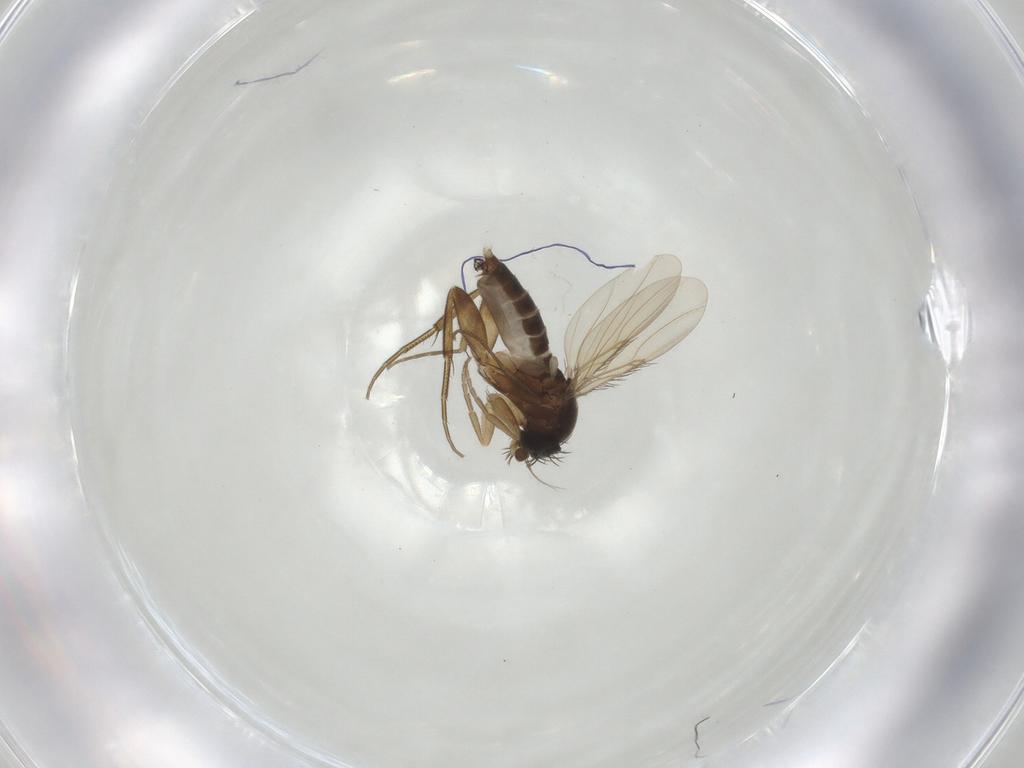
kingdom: Animalia
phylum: Arthropoda
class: Insecta
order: Diptera
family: Phoridae
